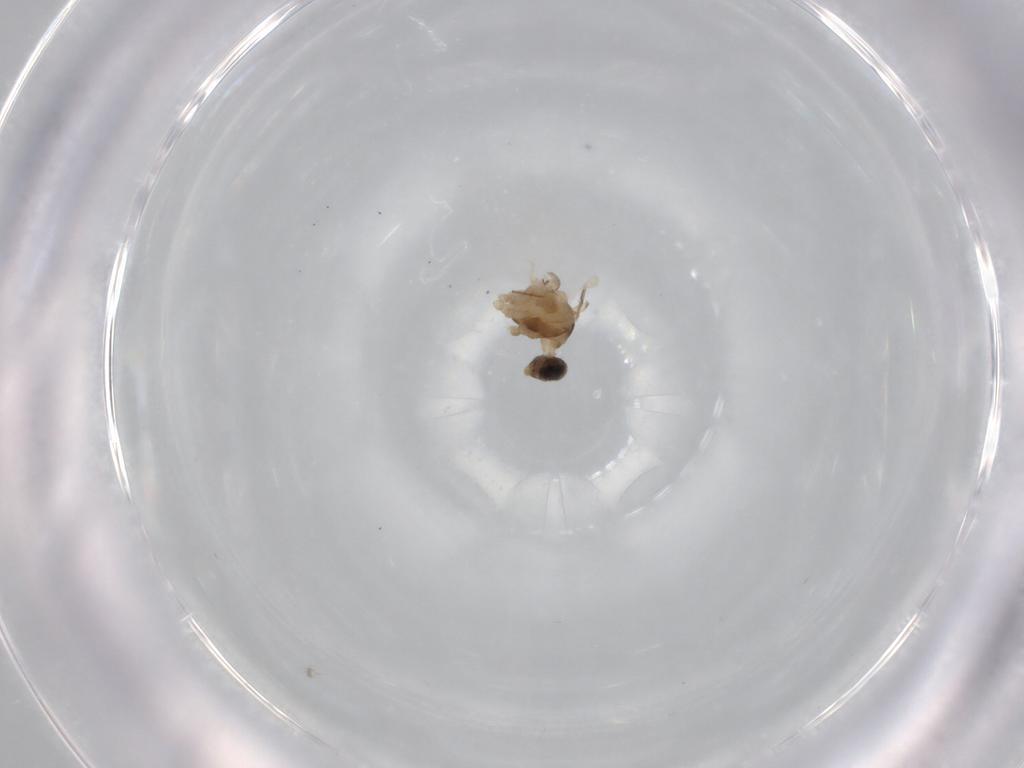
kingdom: Animalia
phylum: Arthropoda
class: Insecta
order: Diptera
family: Cecidomyiidae
